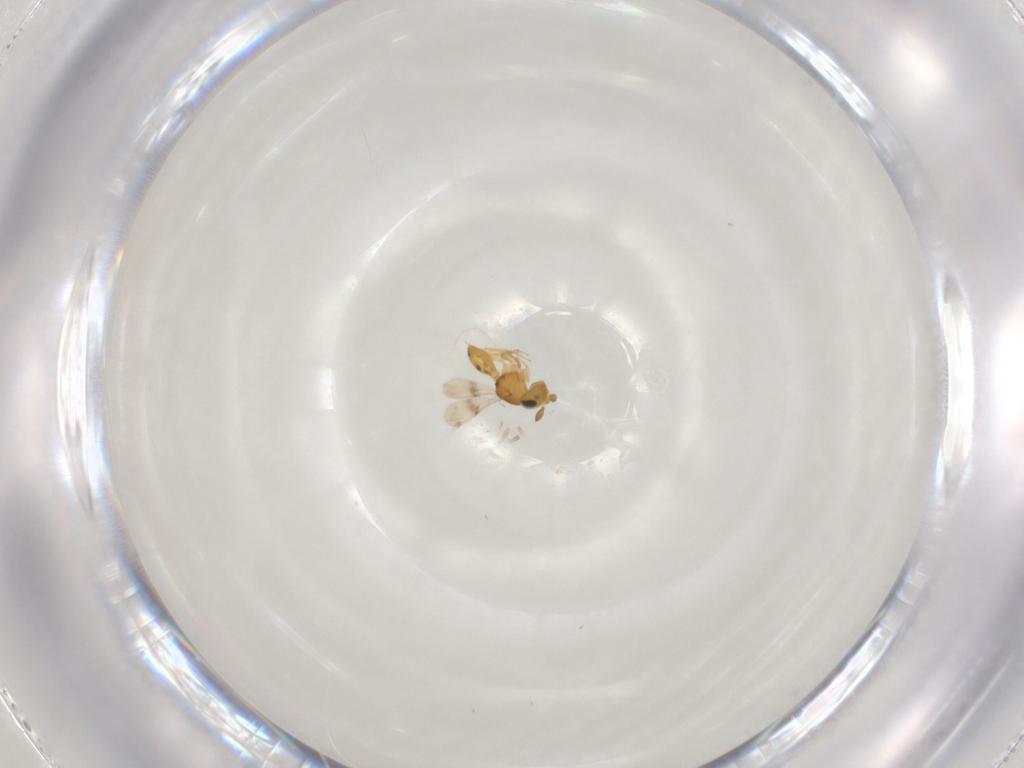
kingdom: Animalia
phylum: Arthropoda
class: Insecta
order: Hymenoptera
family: Scelionidae
